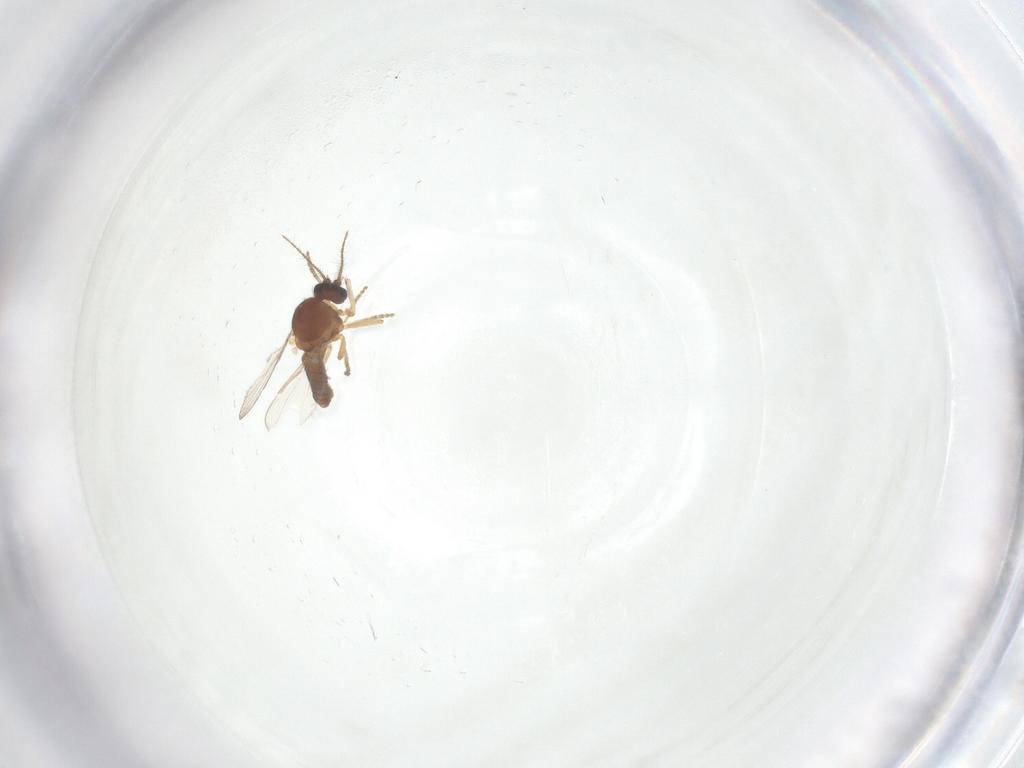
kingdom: Animalia
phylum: Arthropoda
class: Insecta
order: Diptera
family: Ceratopogonidae
